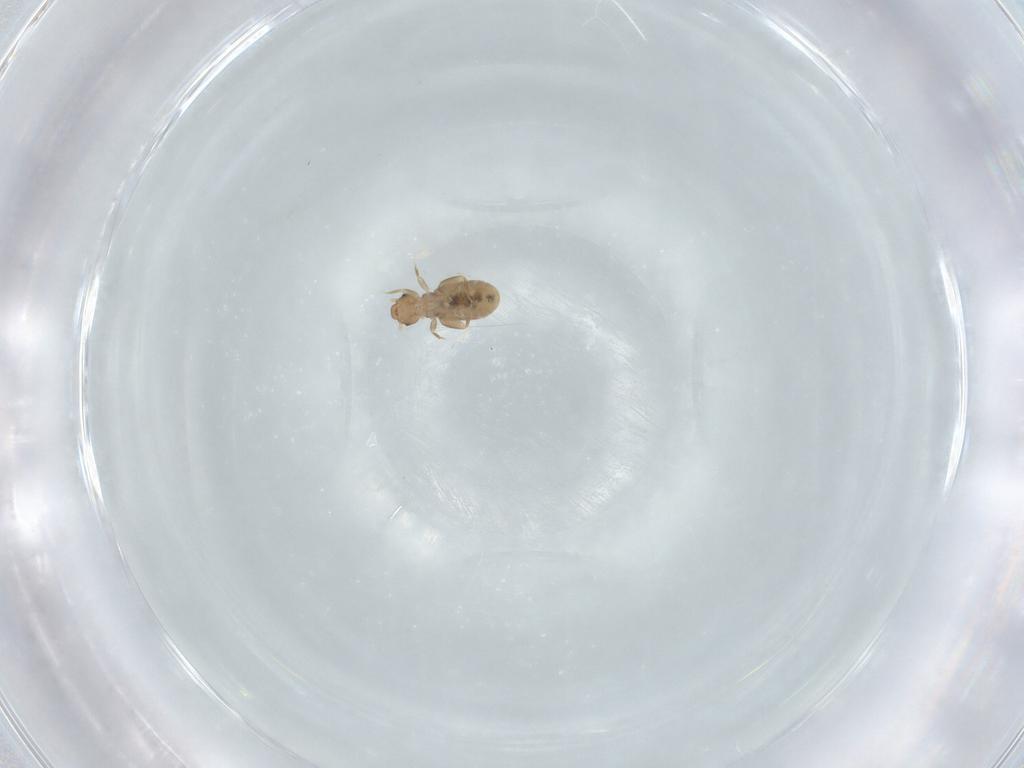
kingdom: Animalia
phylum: Arthropoda
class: Insecta
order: Psocodea
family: Liposcelididae
